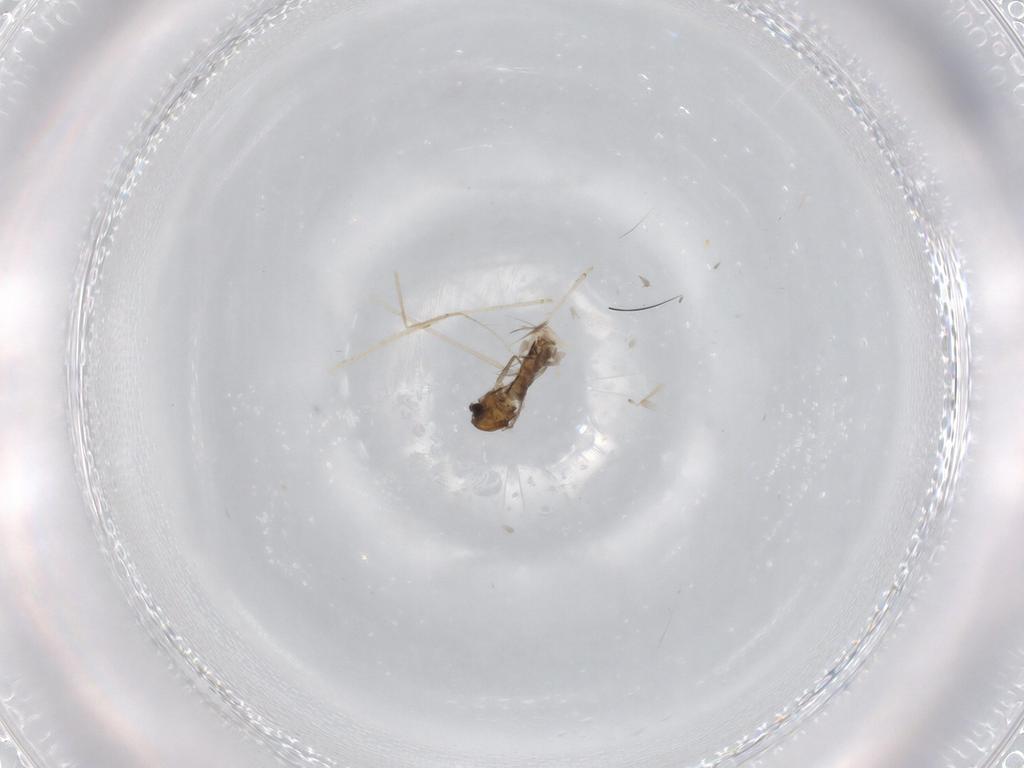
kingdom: Animalia
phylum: Arthropoda
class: Insecta
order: Diptera
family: Chironomidae
